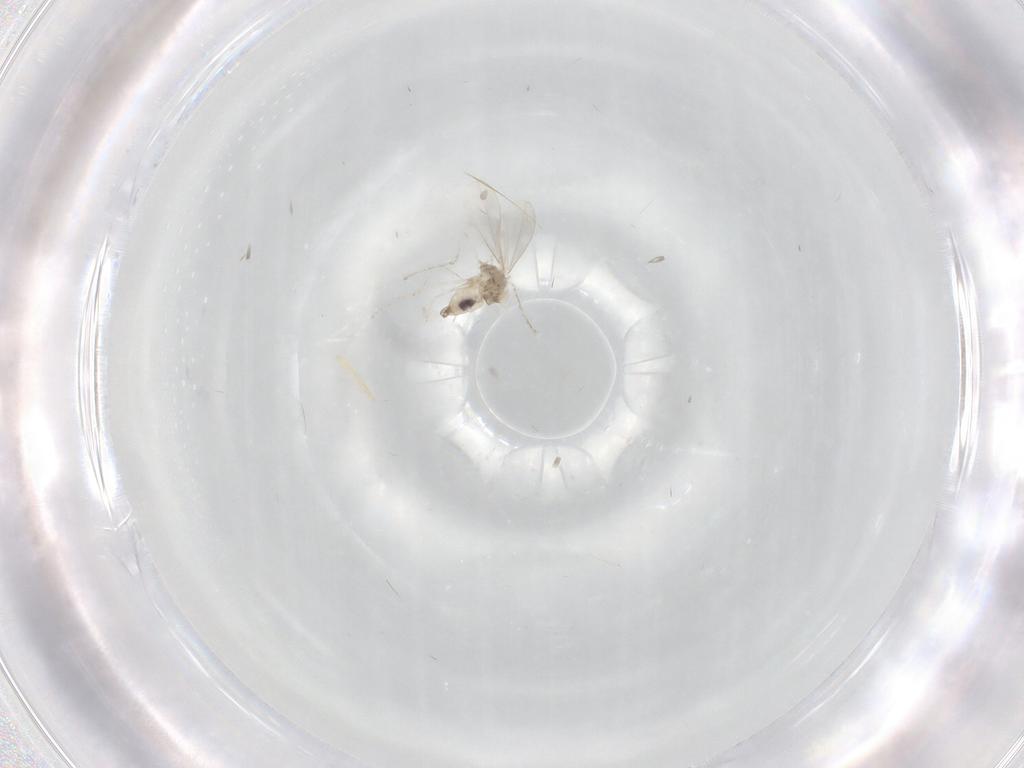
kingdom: Animalia
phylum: Arthropoda
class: Insecta
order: Diptera
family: Cecidomyiidae
